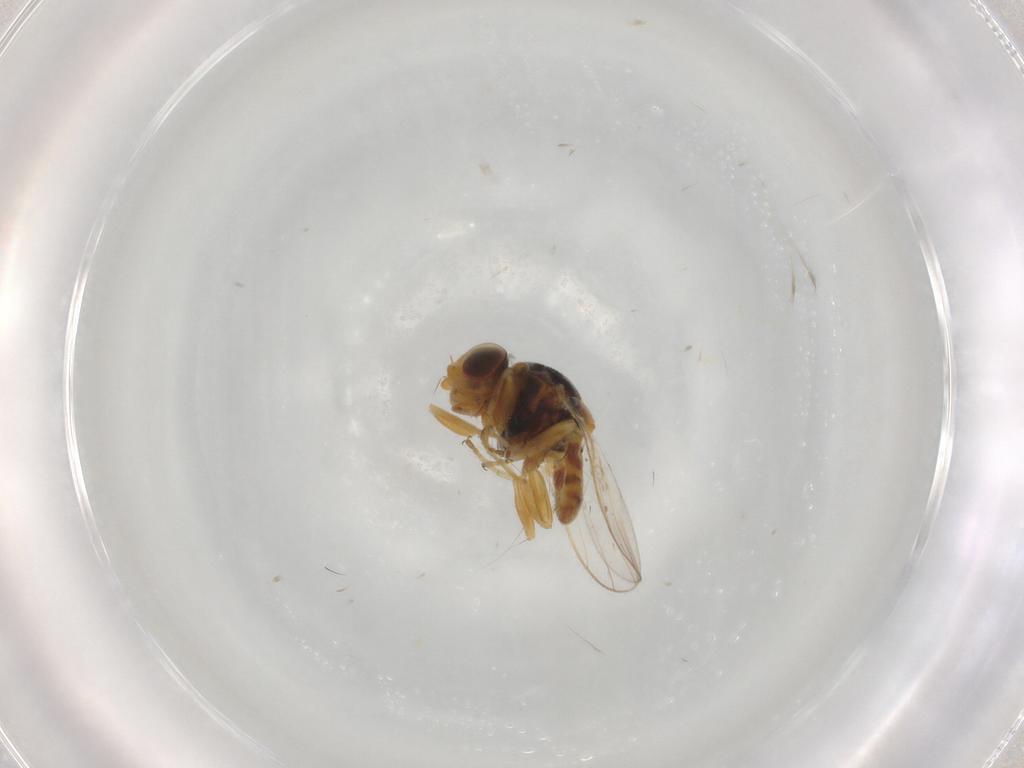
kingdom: Animalia
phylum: Arthropoda
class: Insecta
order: Diptera
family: Chloropidae
